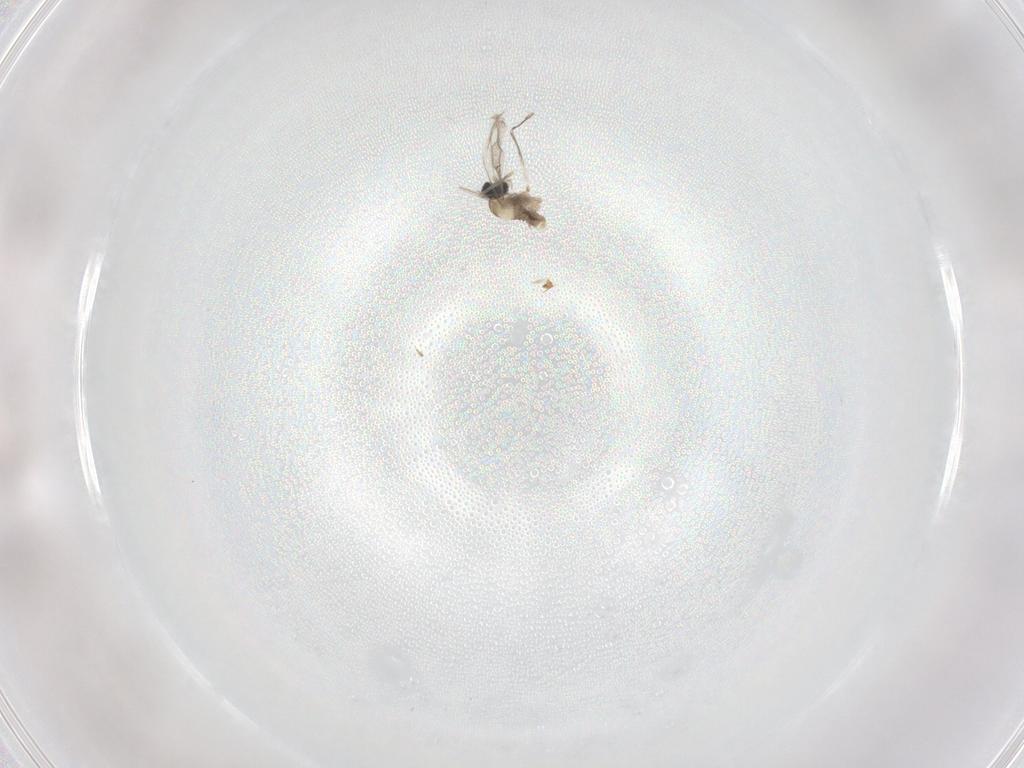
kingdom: Animalia
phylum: Arthropoda
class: Insecta
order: Diptera
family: Cecidomyiidae
